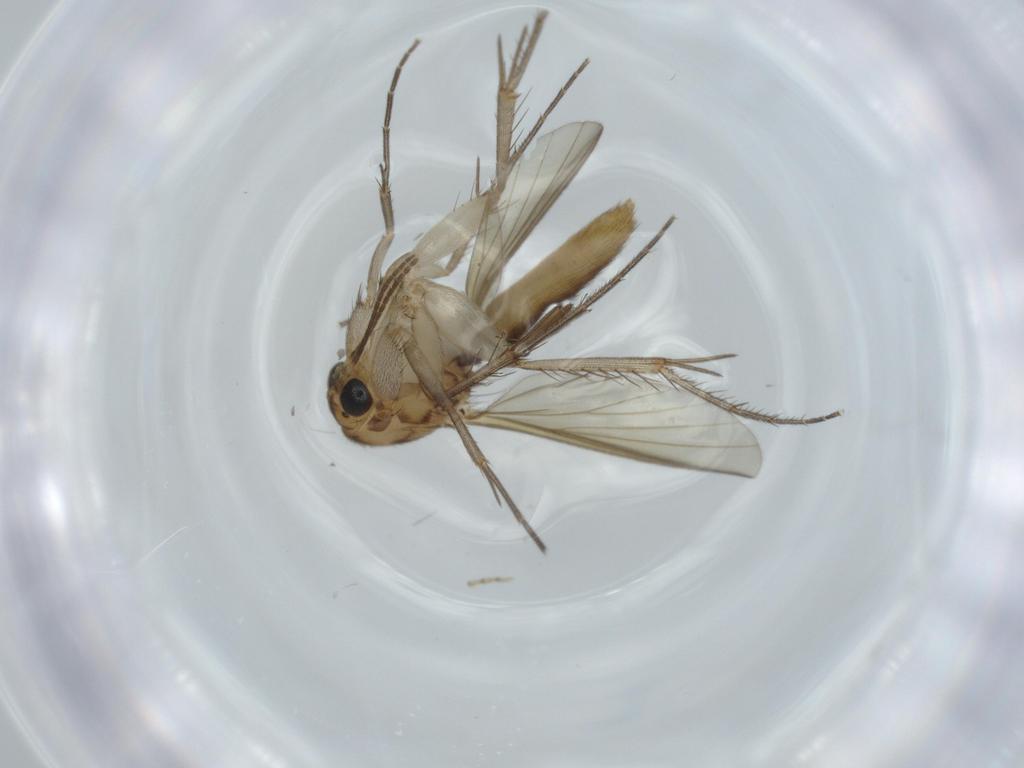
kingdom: Animalia
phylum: Arthropoda
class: Insecta
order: Diptera
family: Mycetophilidae
